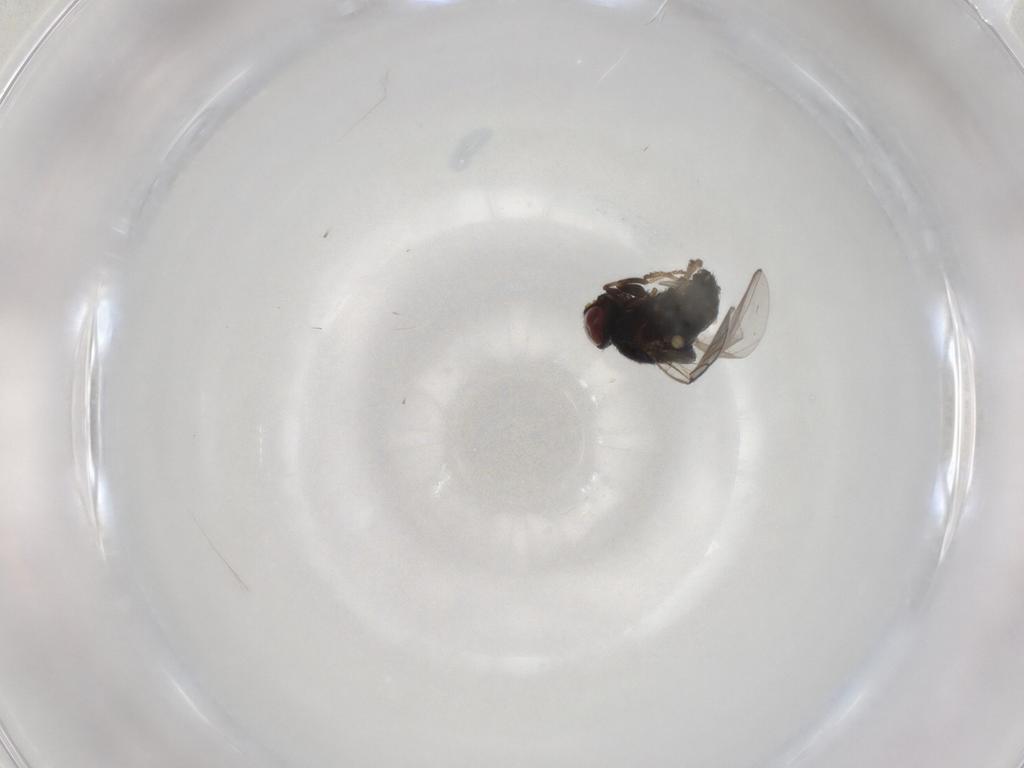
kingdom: Animalia
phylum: Arthropoda
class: Insecta
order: Diptera
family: Chloropidae
